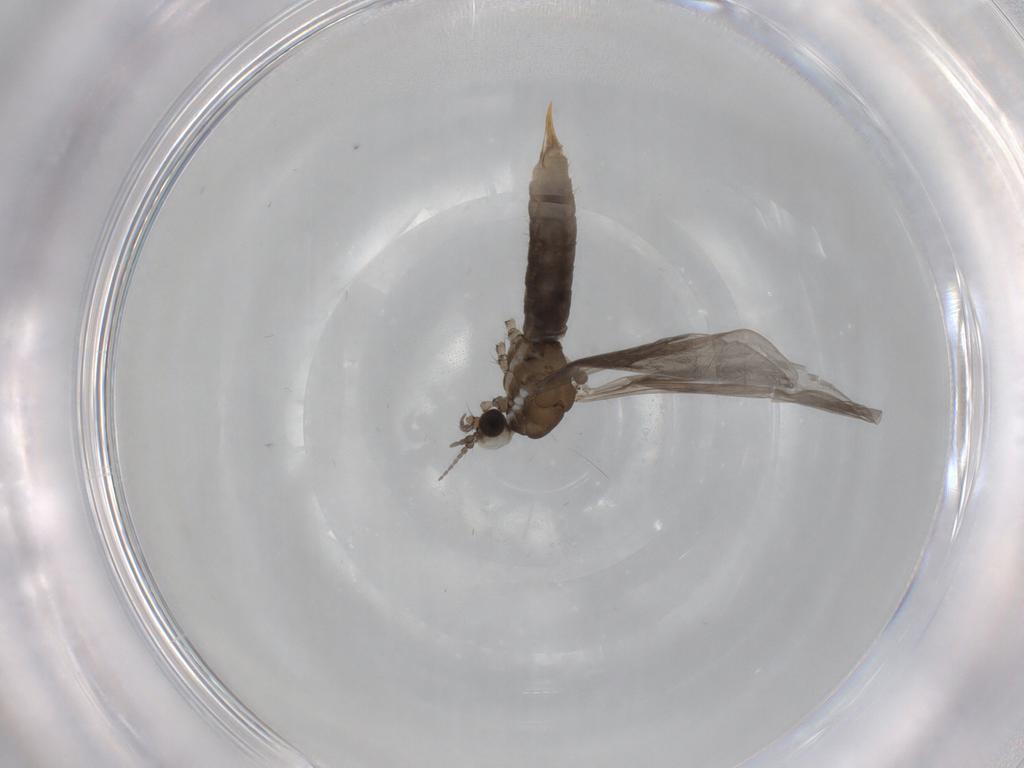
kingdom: Animalia
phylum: Arthropoda
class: Insecta
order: Diptera
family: Limoniidae
